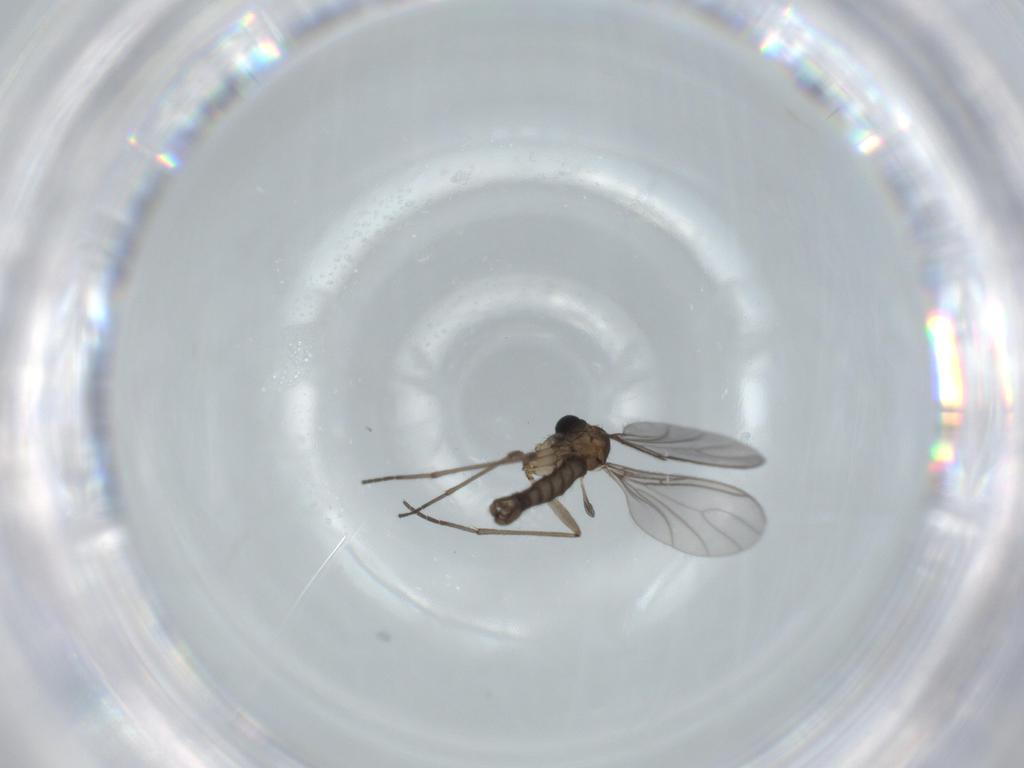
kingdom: Animalia
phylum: Arthropoda
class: Insecta
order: Diptera
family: Sciaridae
